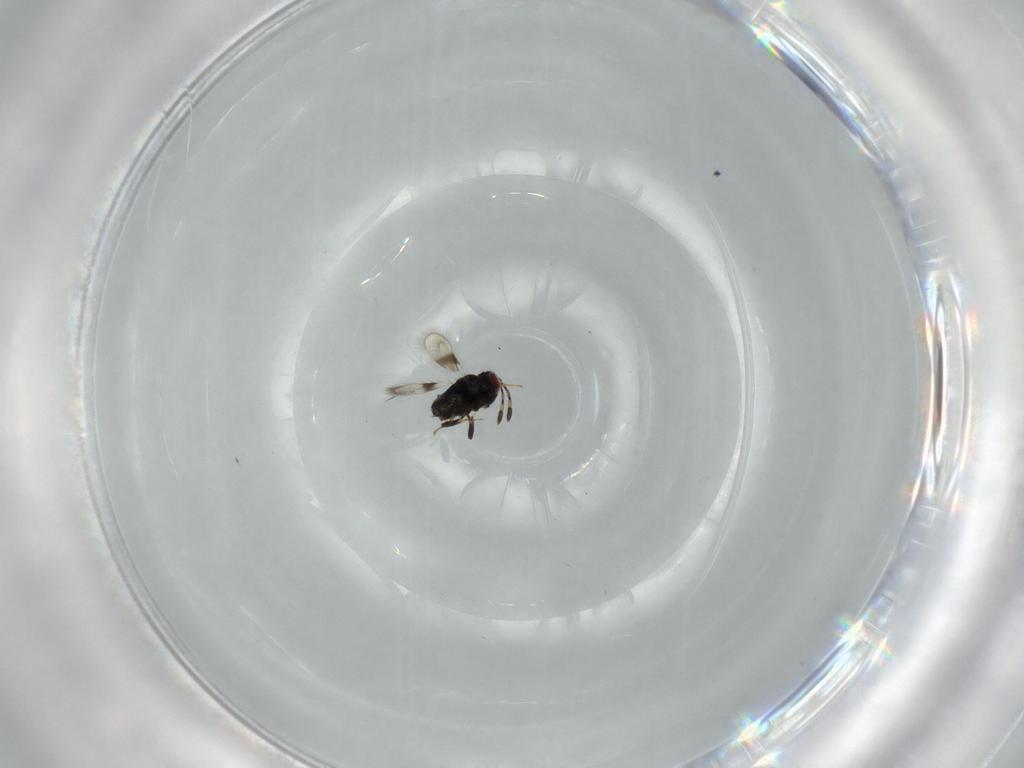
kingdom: Animalia
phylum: Arthropoda
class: Insecta
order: Hymenoptera
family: Azotidae
